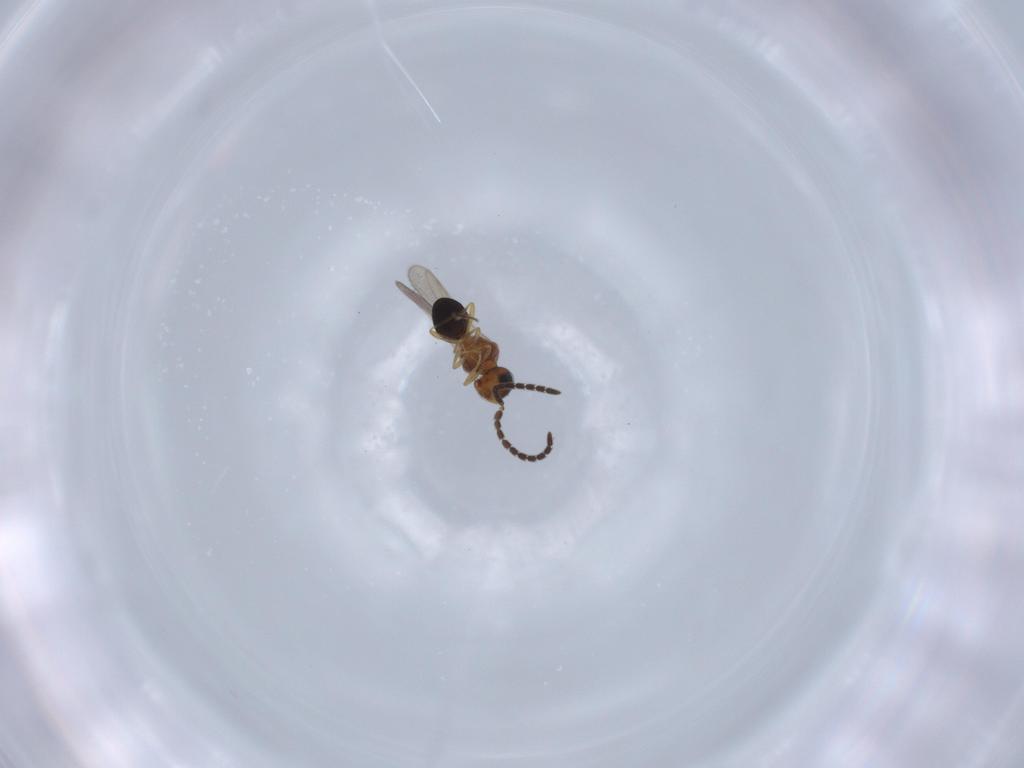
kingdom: Animalia
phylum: Arthropoda
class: Insecta
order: Hymenoptera
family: Scelionidae
